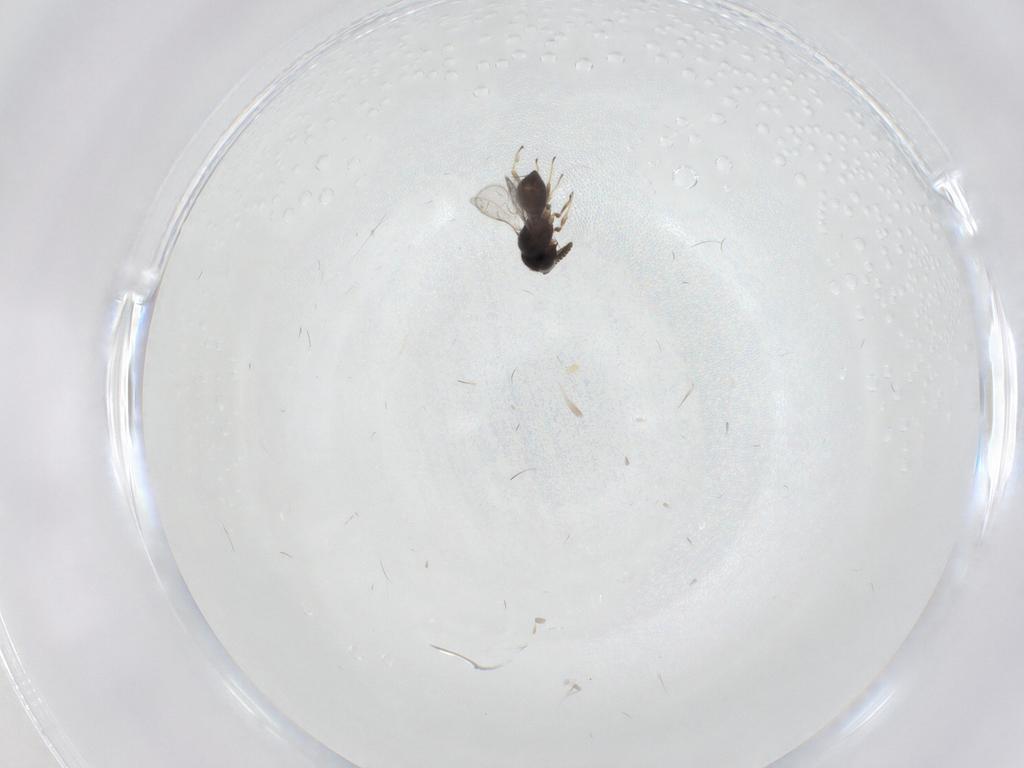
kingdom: Animalia
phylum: Arthropoda
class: Insecta
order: Hymenoptera
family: Scelionidae
